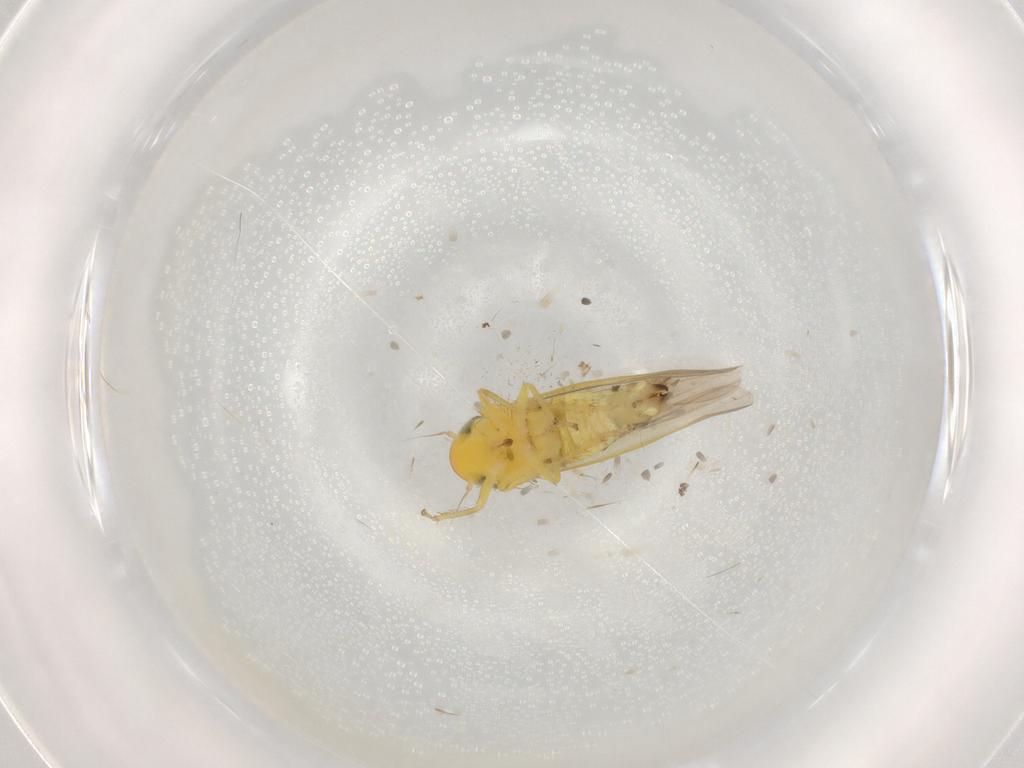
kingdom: Animalia
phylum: Arthropoda
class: Insecta
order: Hemiptera
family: Cicadellidae
